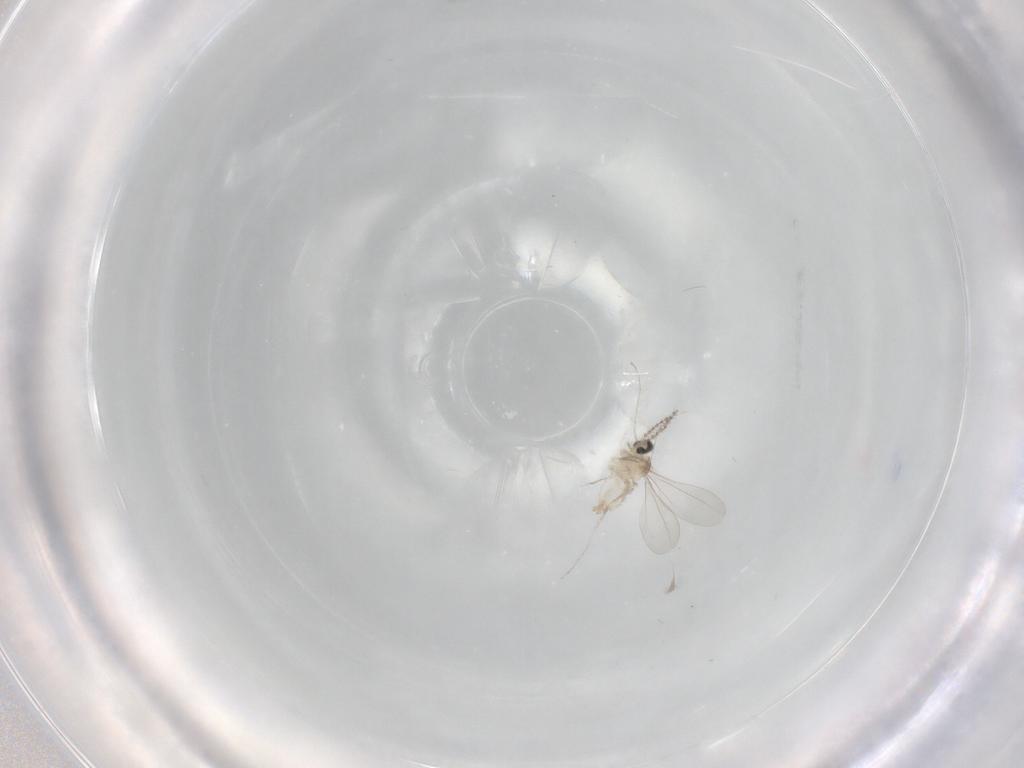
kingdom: Animalia
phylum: Arthropoda
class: Insecta
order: Diptera
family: Cecidomyiidae
